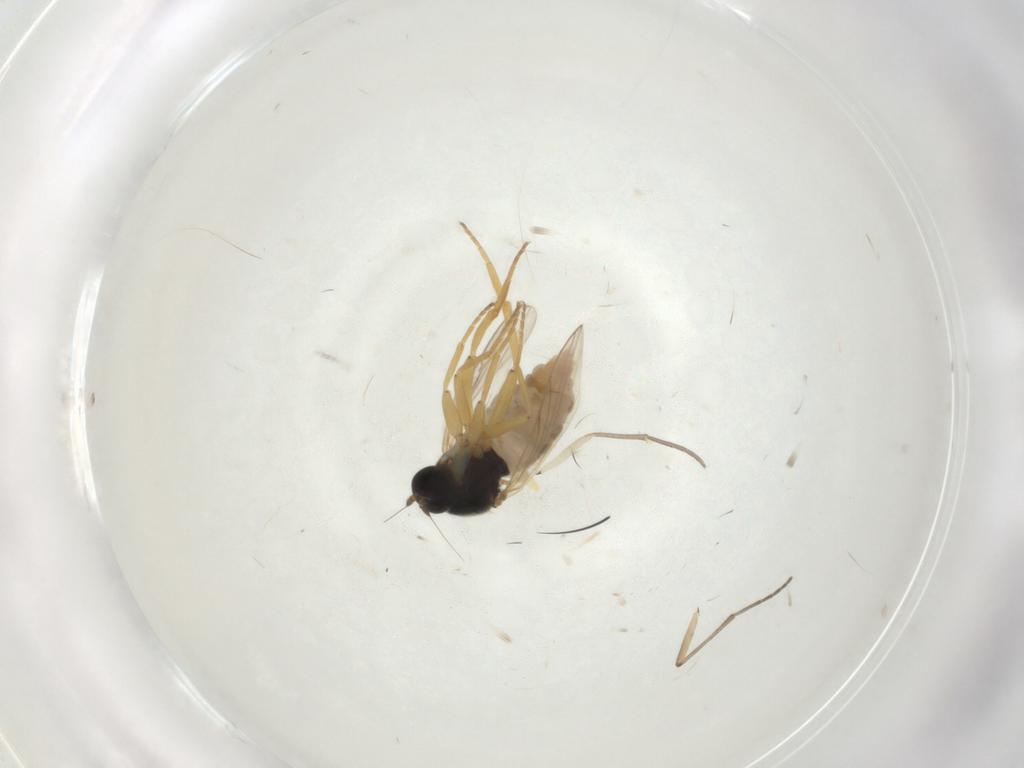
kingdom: Animalia
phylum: Arthropoda
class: Insecta
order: Diptera
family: Hybotidae
